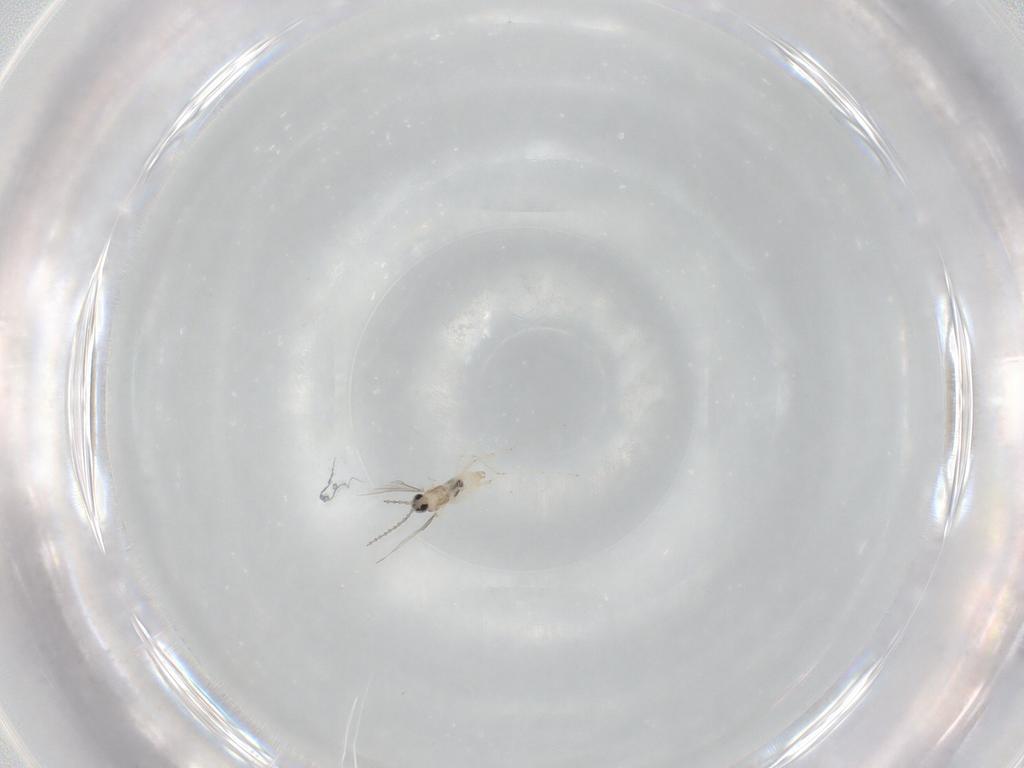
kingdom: Animalia
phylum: Arthropoda
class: Insecta
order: Diptera
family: Cecidomyiidae
